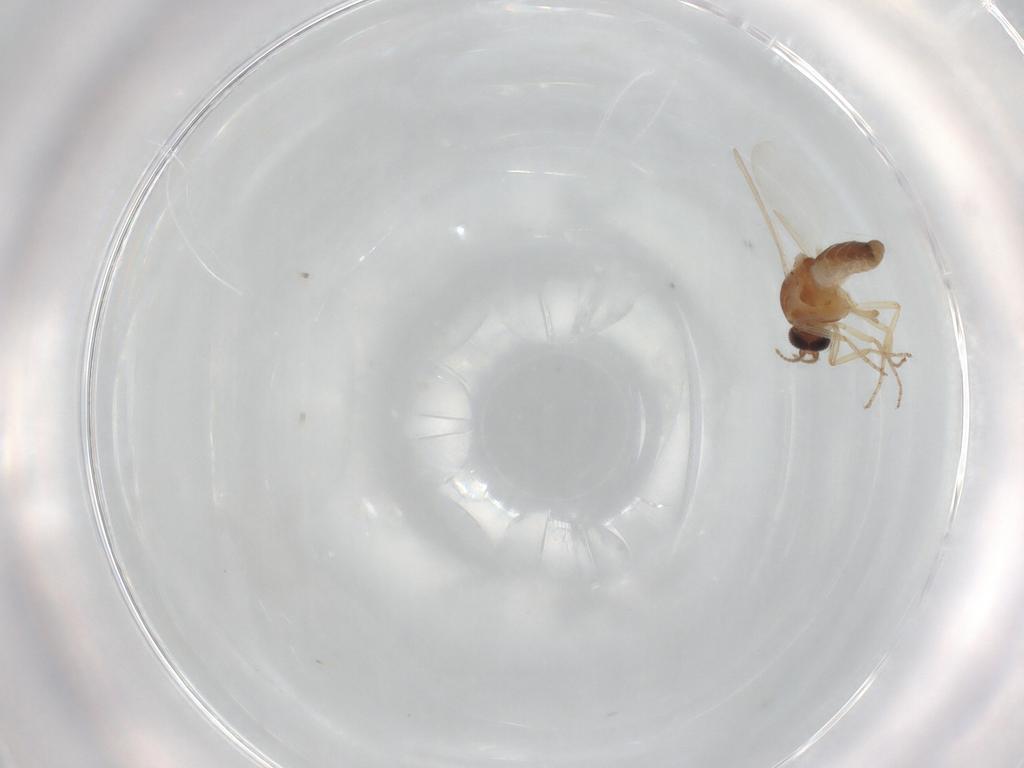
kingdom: Animalia
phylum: Arthropoda
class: Insecta
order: Diptera
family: Ceratopogonidae
